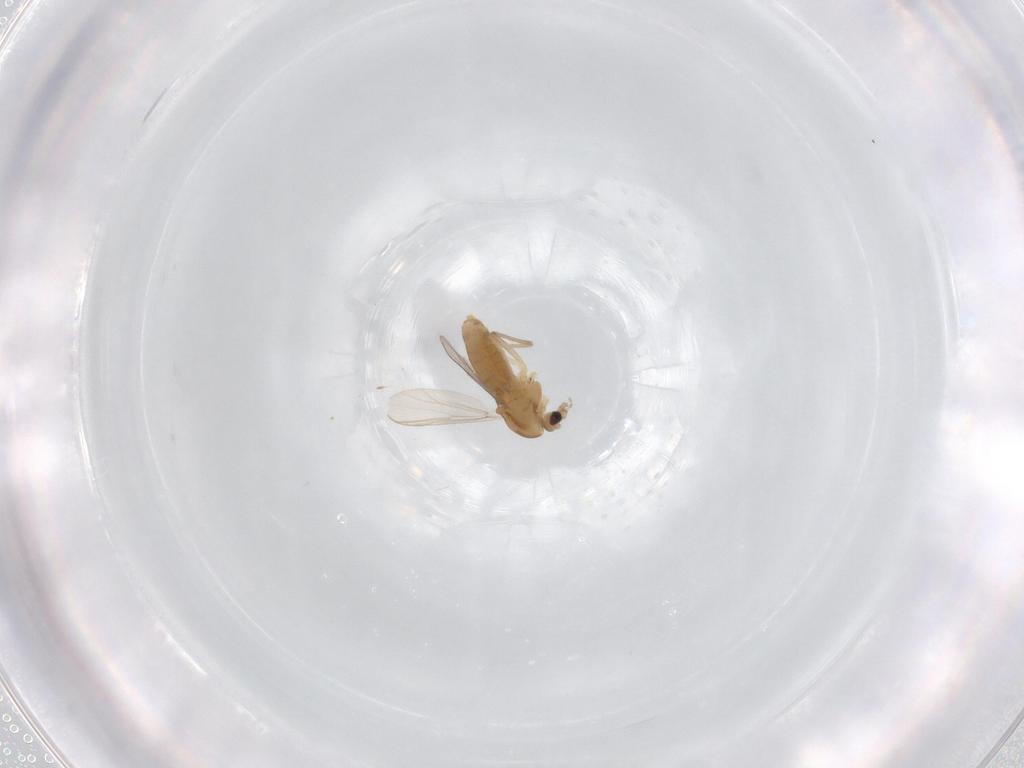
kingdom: Animalia
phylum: Arthropoda
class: Insecta
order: Diptera
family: Chironomidae
